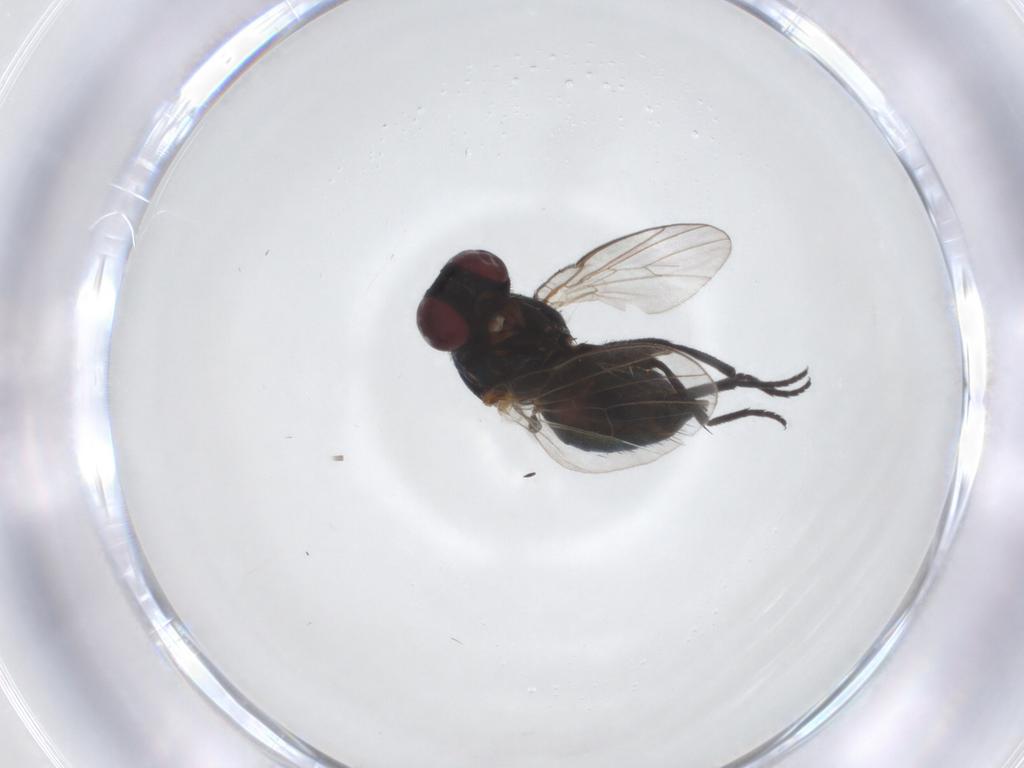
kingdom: Animalia
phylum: Arthropoda
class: Insecta
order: Diptera
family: Agromyzidae
